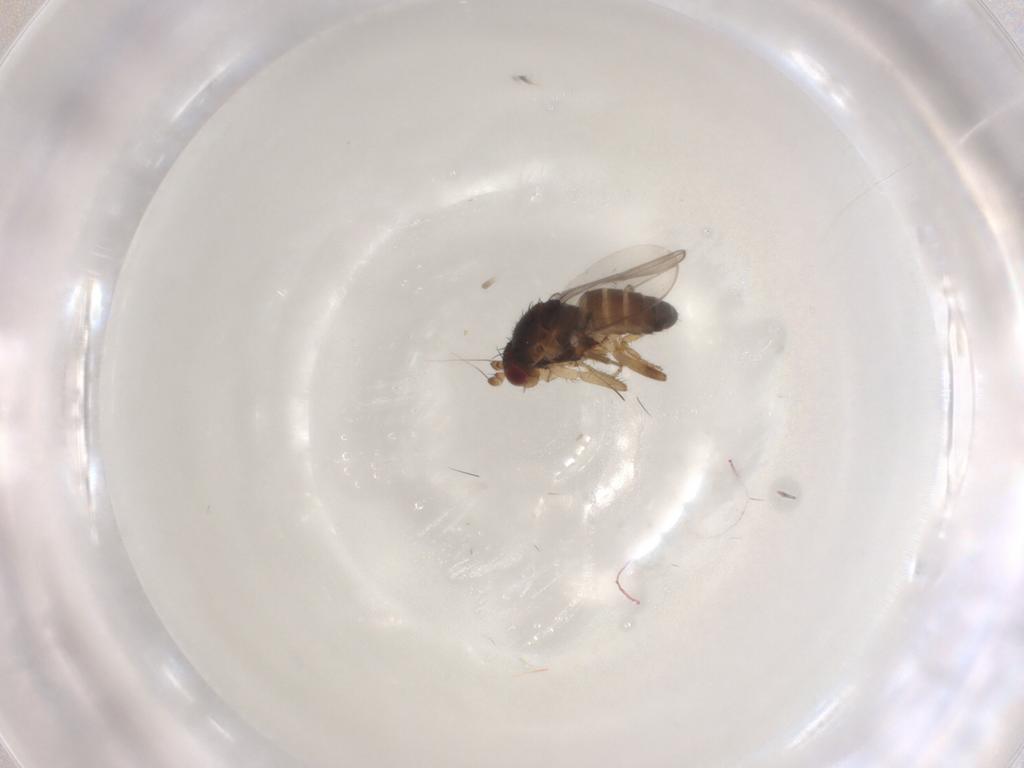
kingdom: Animalia
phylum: Arthropoda
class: Insecta
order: Diptera
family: Sphaeroceridae
